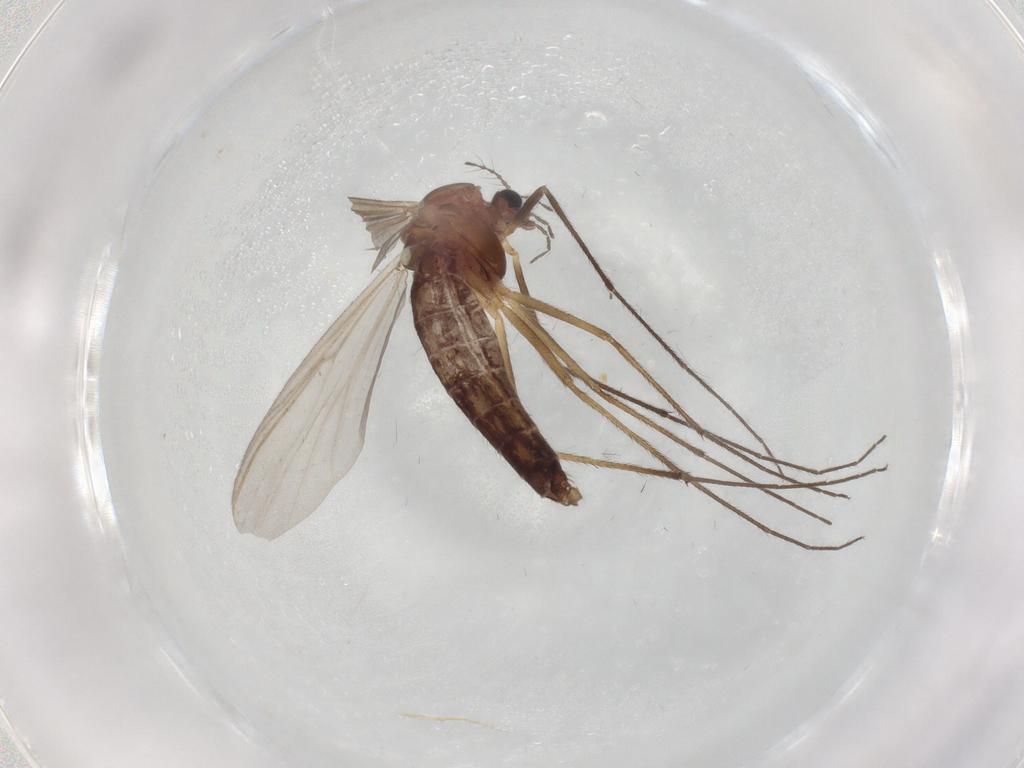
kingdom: Animalia
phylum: Arthropoda
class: Insecta
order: Diptera
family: Chironomidae
